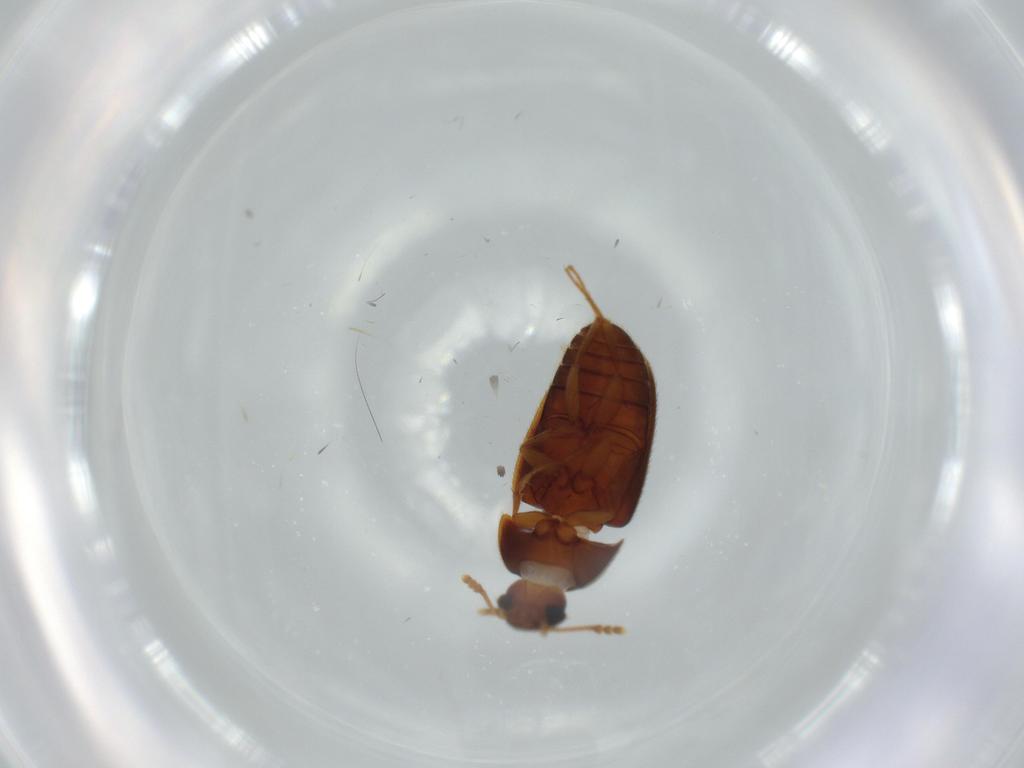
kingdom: Animalia
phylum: Arthropoda
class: Insecta
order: Coleoptera
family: Mycetophagidae
